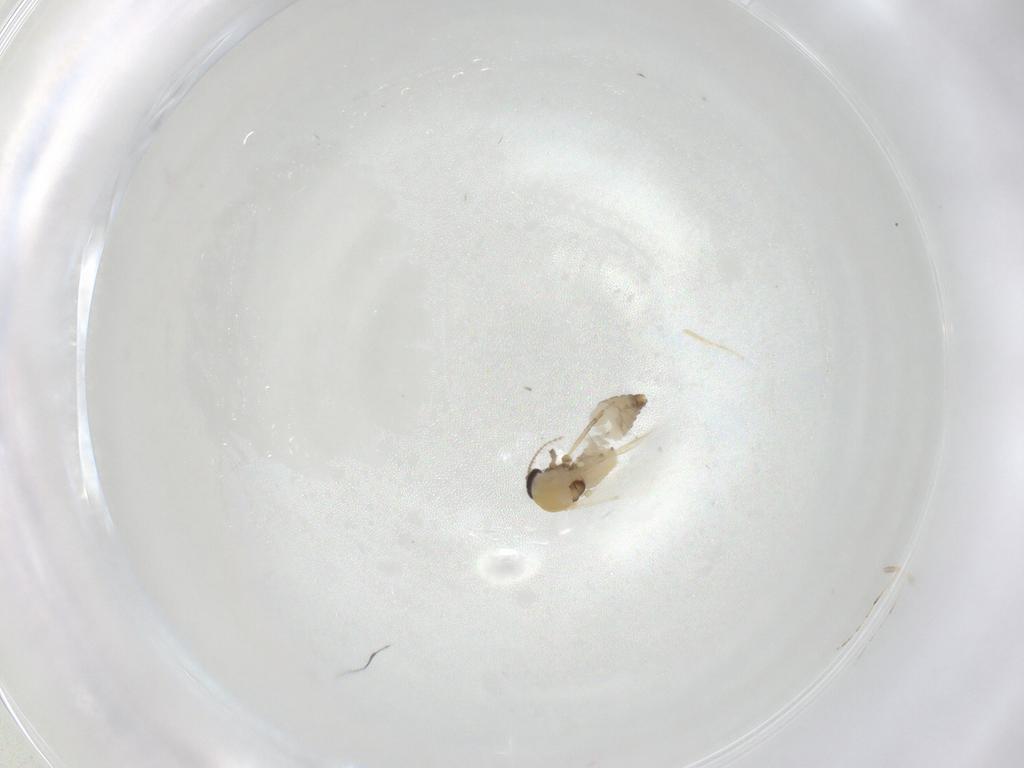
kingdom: Animalia
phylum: Arthropoda
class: Insecta
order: Diptera
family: Ceratopogonidae
